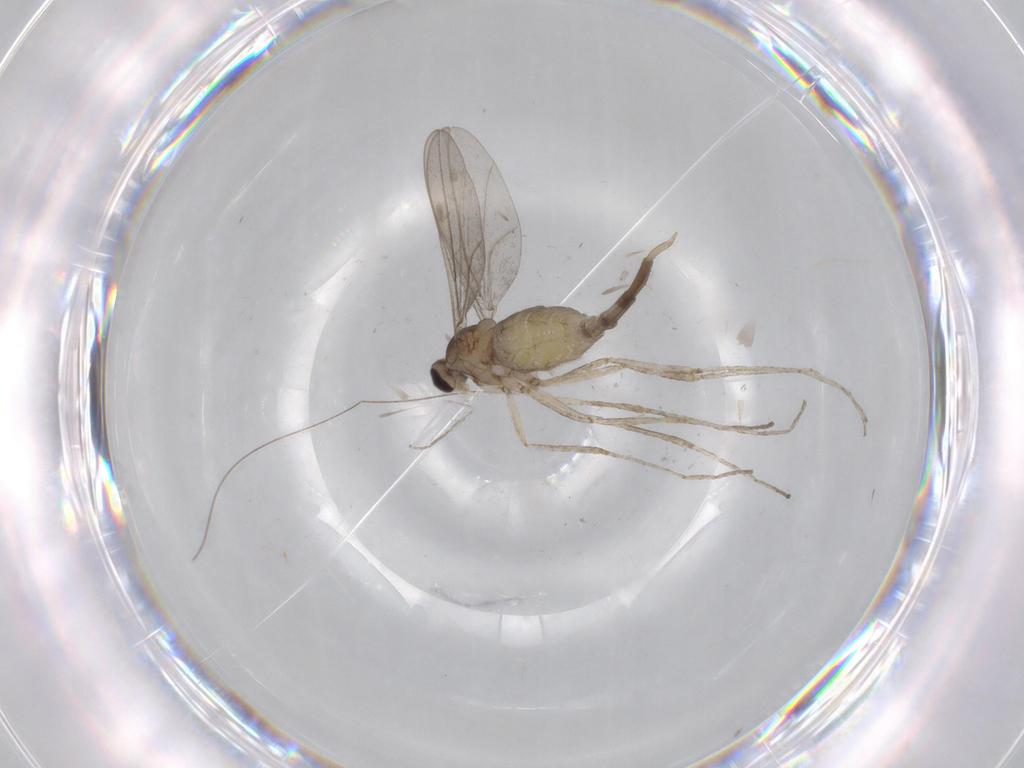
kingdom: Animalia
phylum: Arthropoda
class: Insecta
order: Diptera
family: Cecidomyiidae
